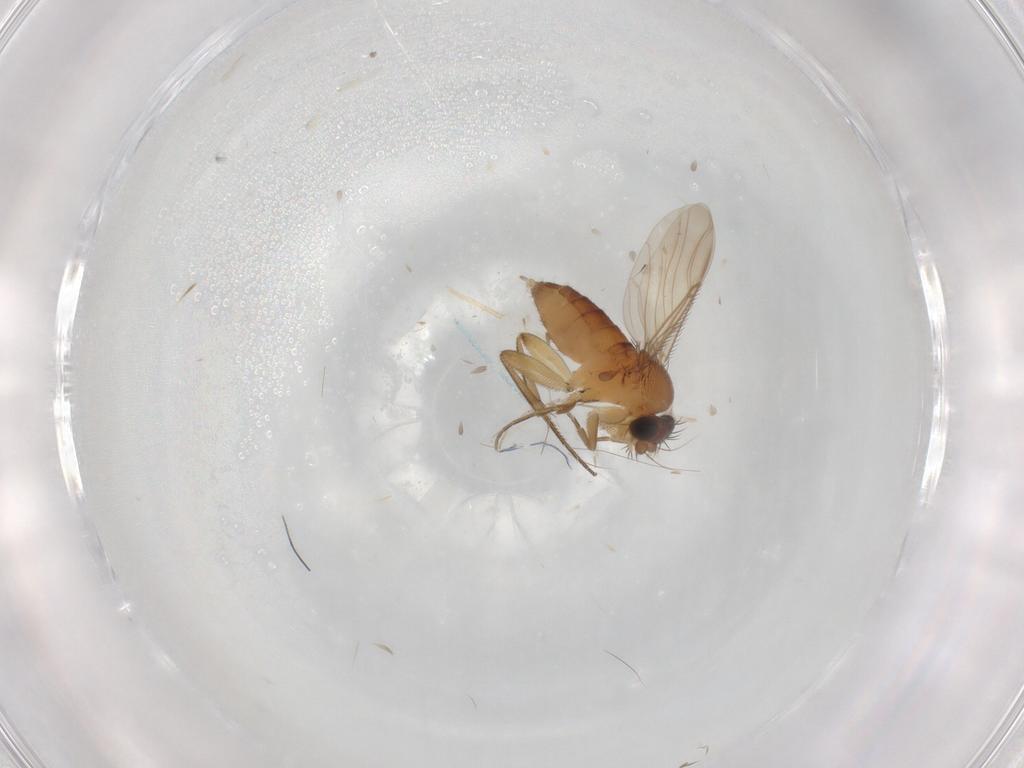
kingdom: Animalia
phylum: Arthropoda
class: Insecta
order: Diptera
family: Phoridae
